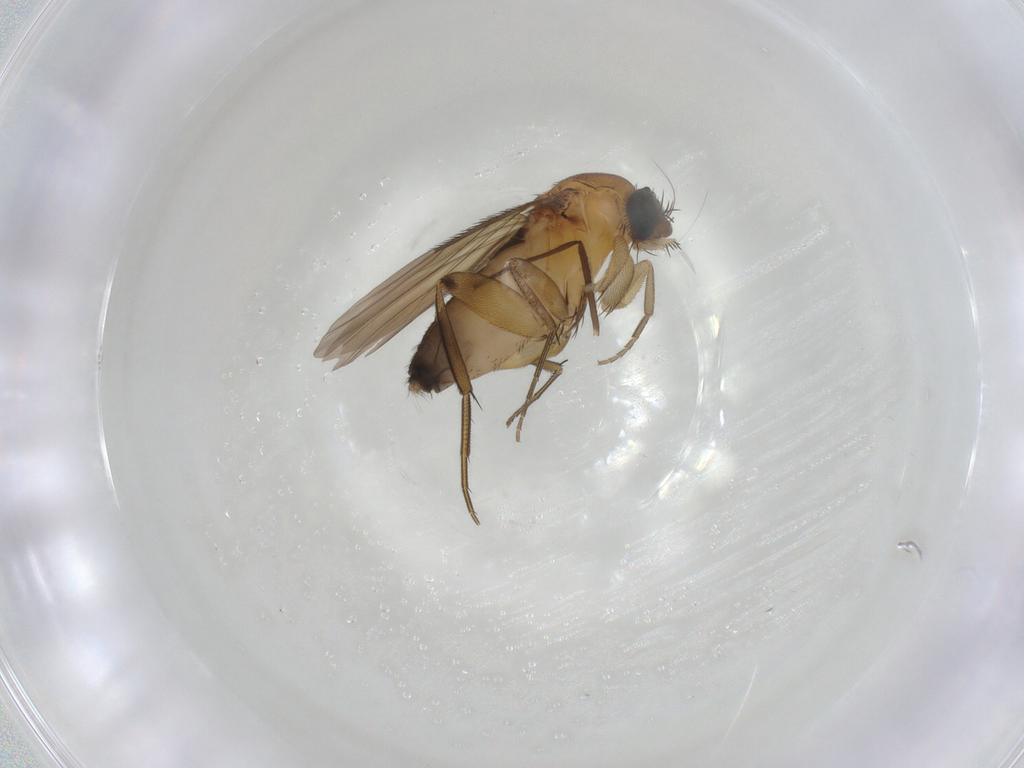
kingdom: Animalia
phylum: Arthropoda
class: Insecta
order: Diptera
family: Phoridae
